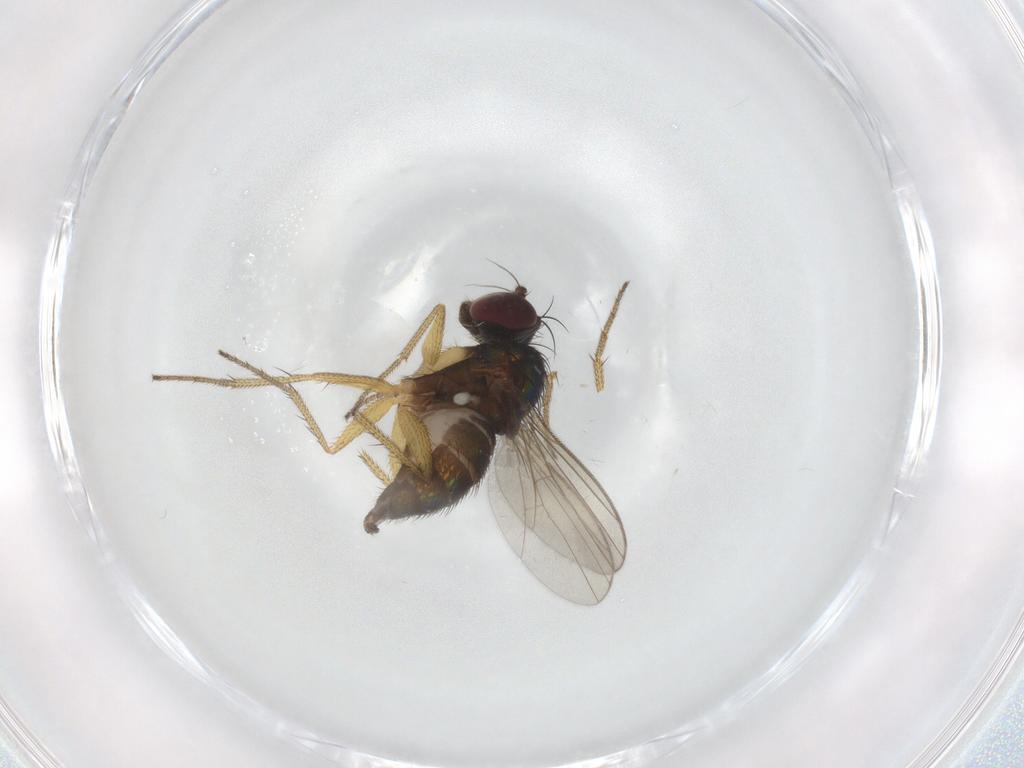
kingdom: Animalia
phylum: Arthropoda
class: Insecta
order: Diptera
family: Dolichopodidae
